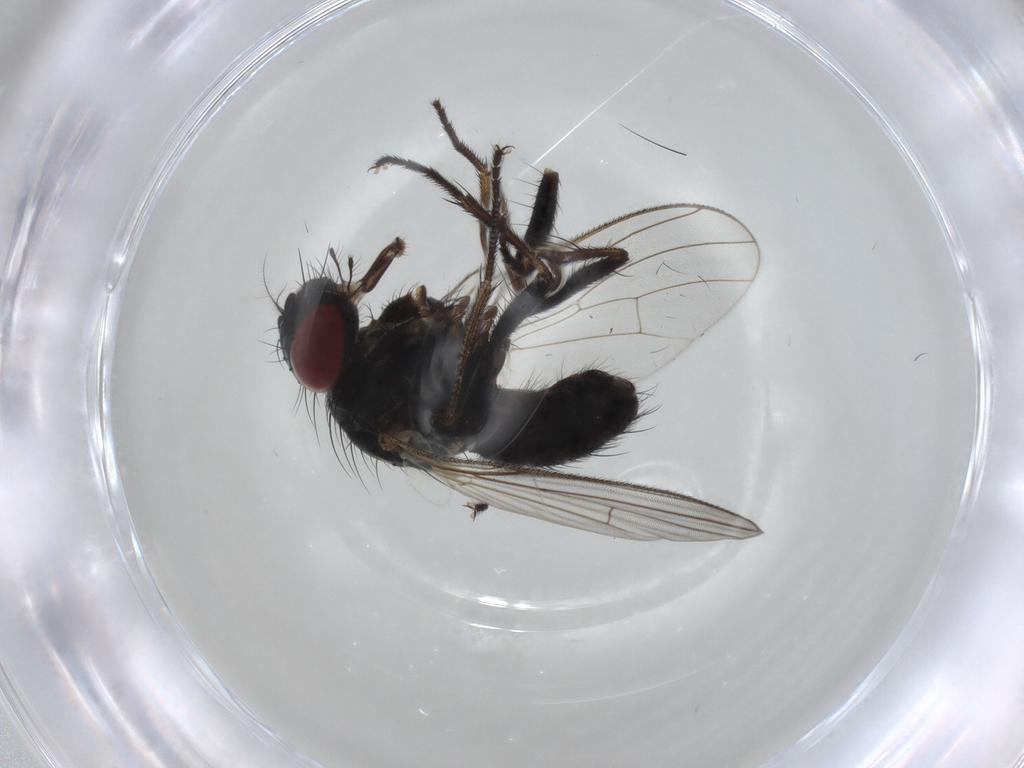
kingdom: Animalia
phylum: Arthropoda
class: Insecta
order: Diptera
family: Muscidae
